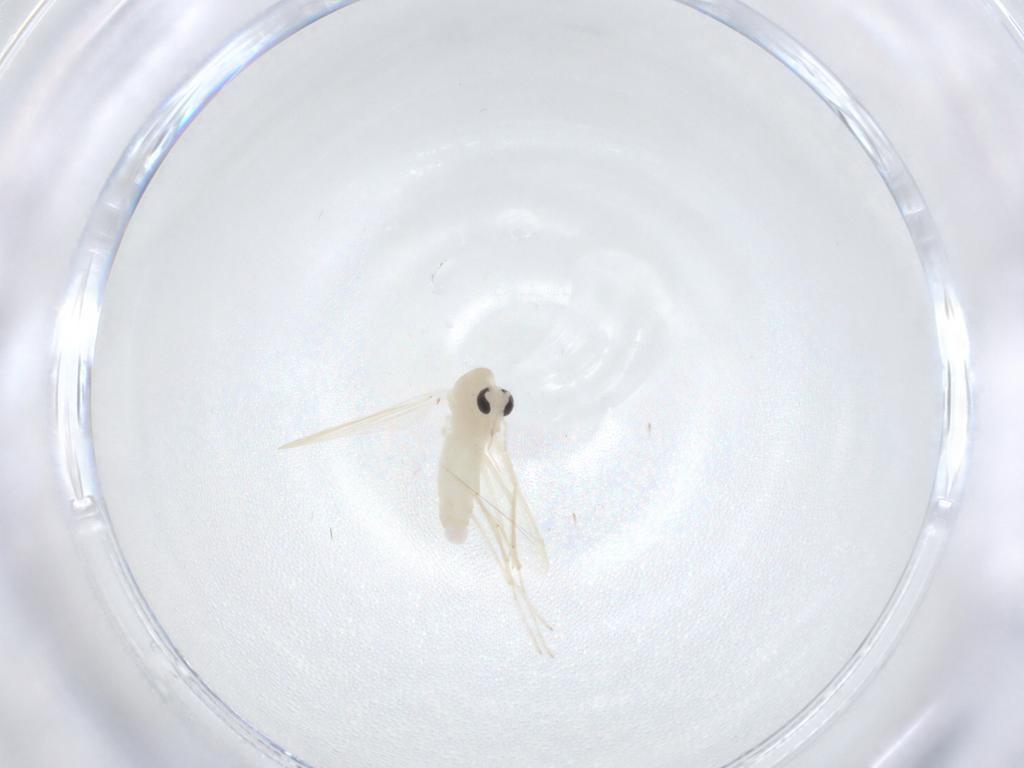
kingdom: Animalia
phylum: Arthropoda
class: Insecta
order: Diptera
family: Chironomidae
